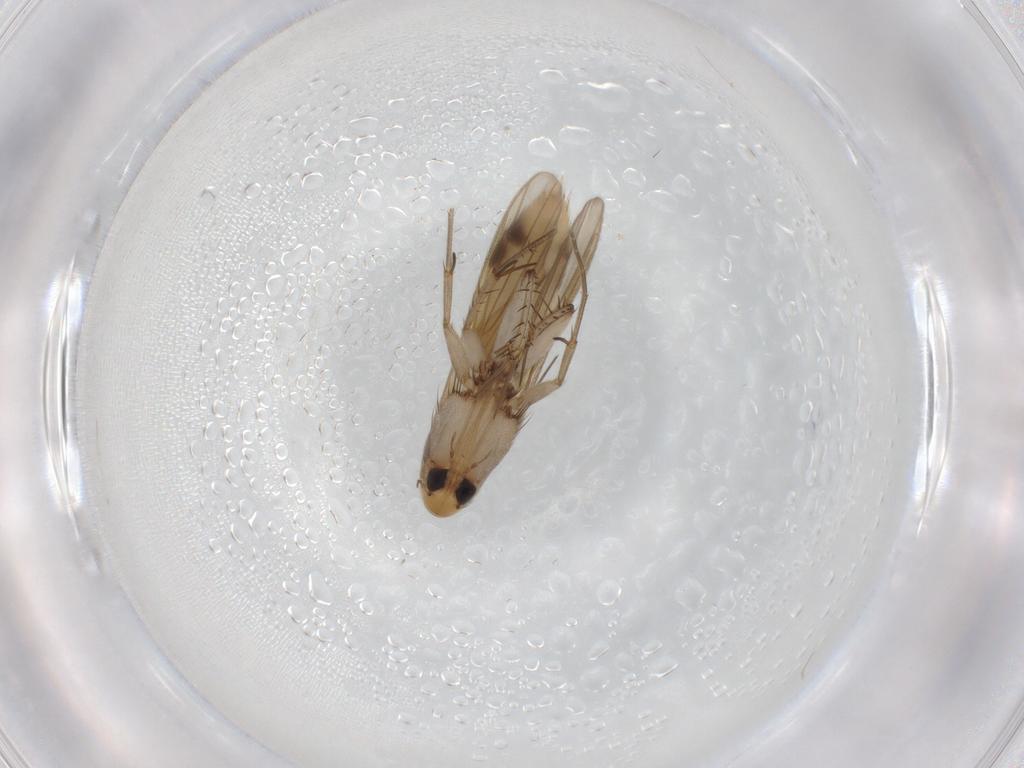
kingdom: Animalia
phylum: Arthropoda
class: Insecta
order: Diptera
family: Mycetophilidae
